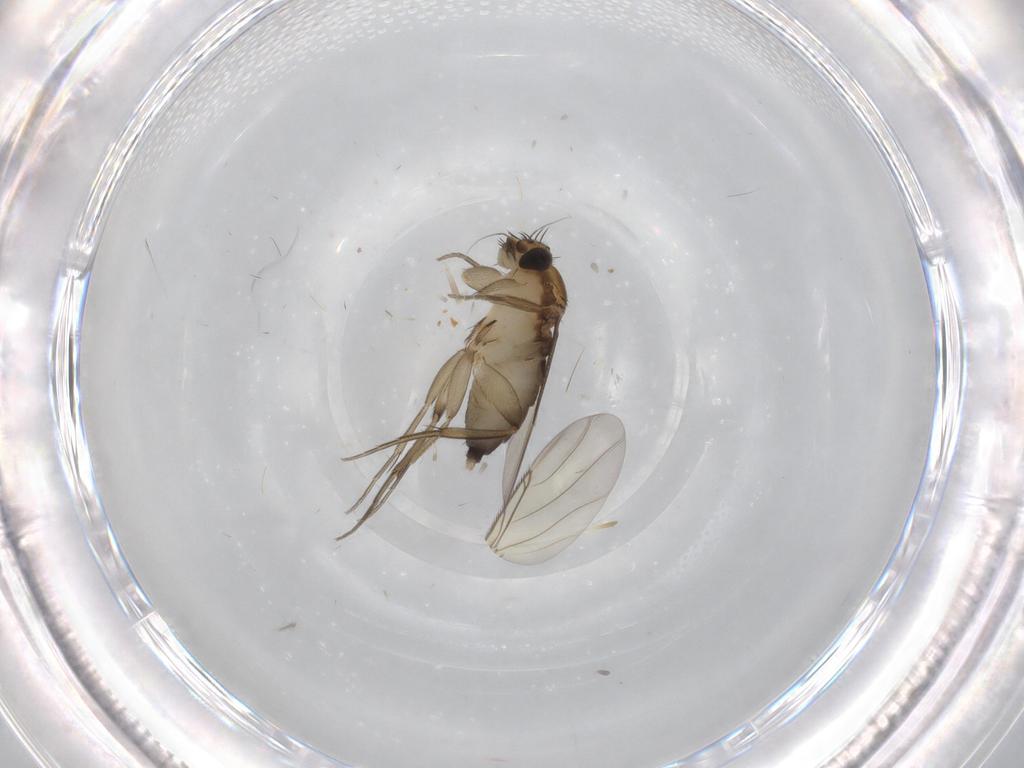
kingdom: Animalia
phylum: Arthropoda
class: Insecta
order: Diptera
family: Phoridae
